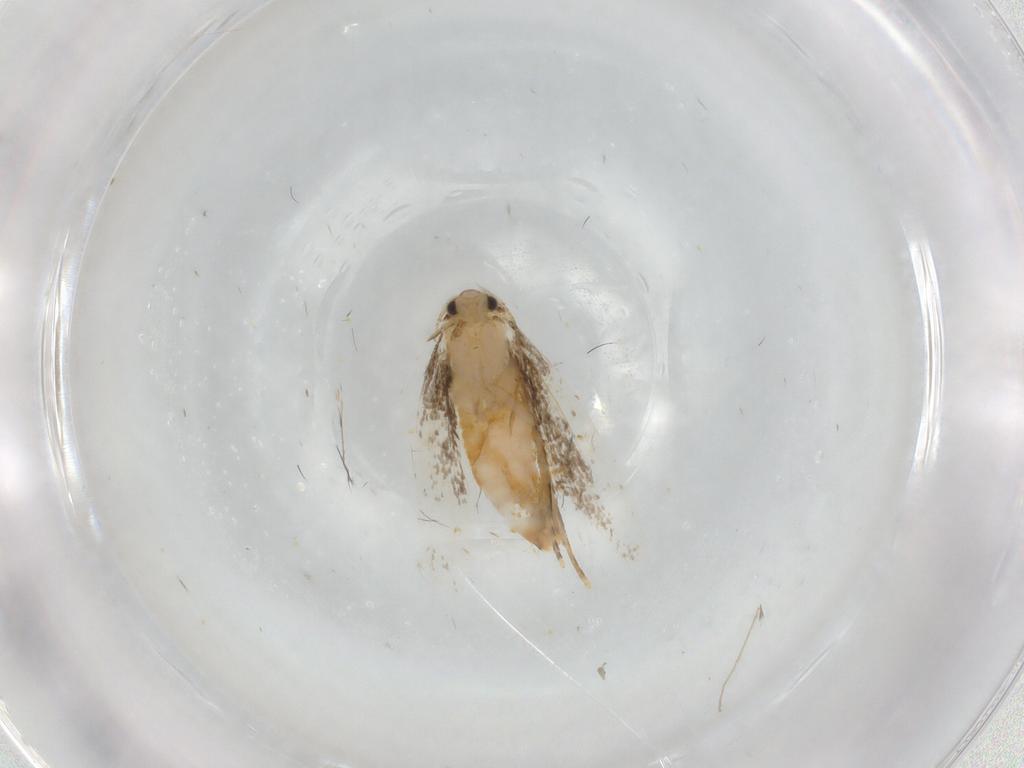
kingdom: Animalia
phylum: Arthropoda
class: Insecta
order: Lepidoptera
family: Incurvariidae
